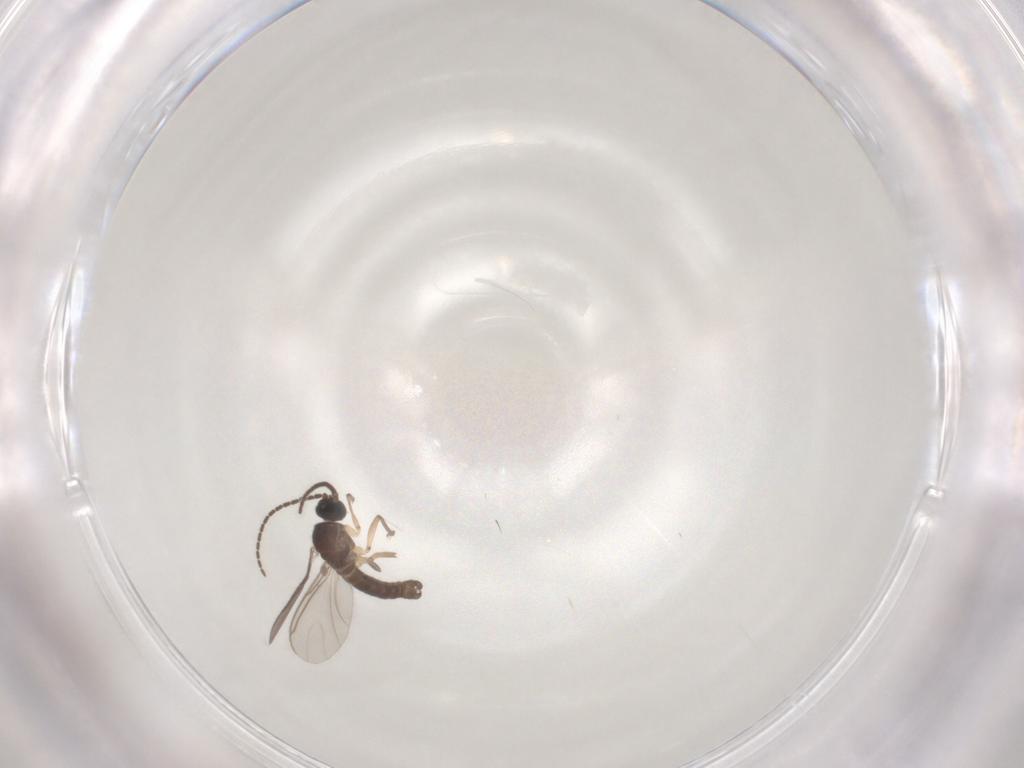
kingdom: Animalia
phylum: Arthropoda
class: Insecta
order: Diptera
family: Sciaridae
